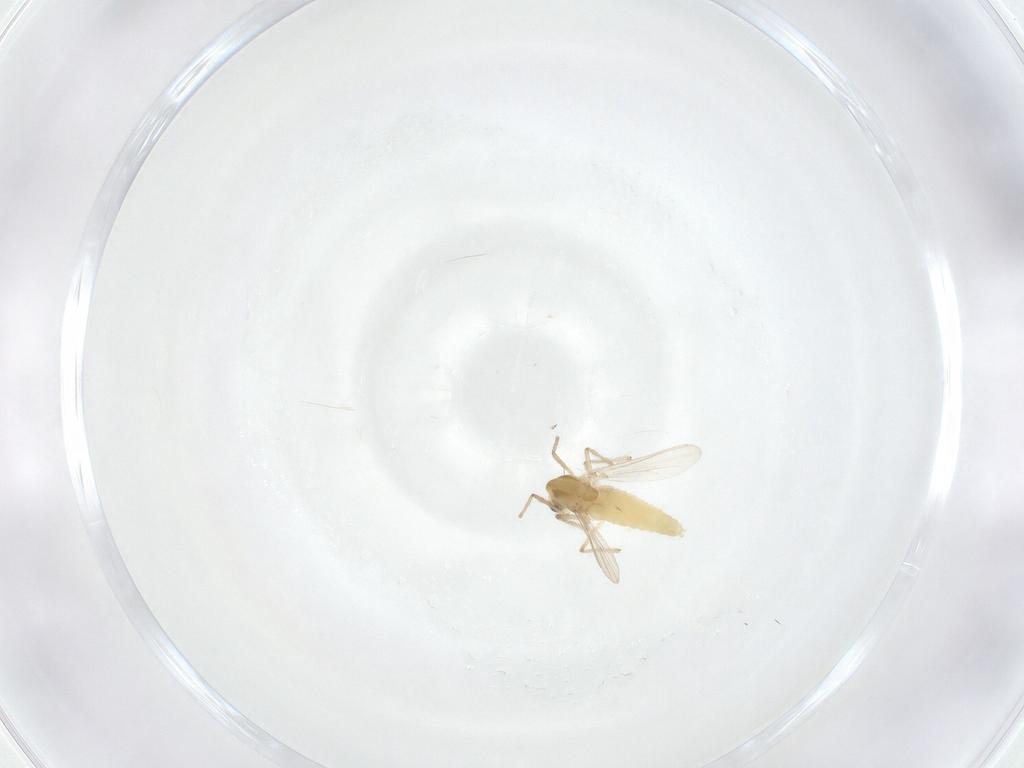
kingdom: Animalia
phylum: Arthropoda
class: Insecta
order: Diptera
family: Chironomidae
